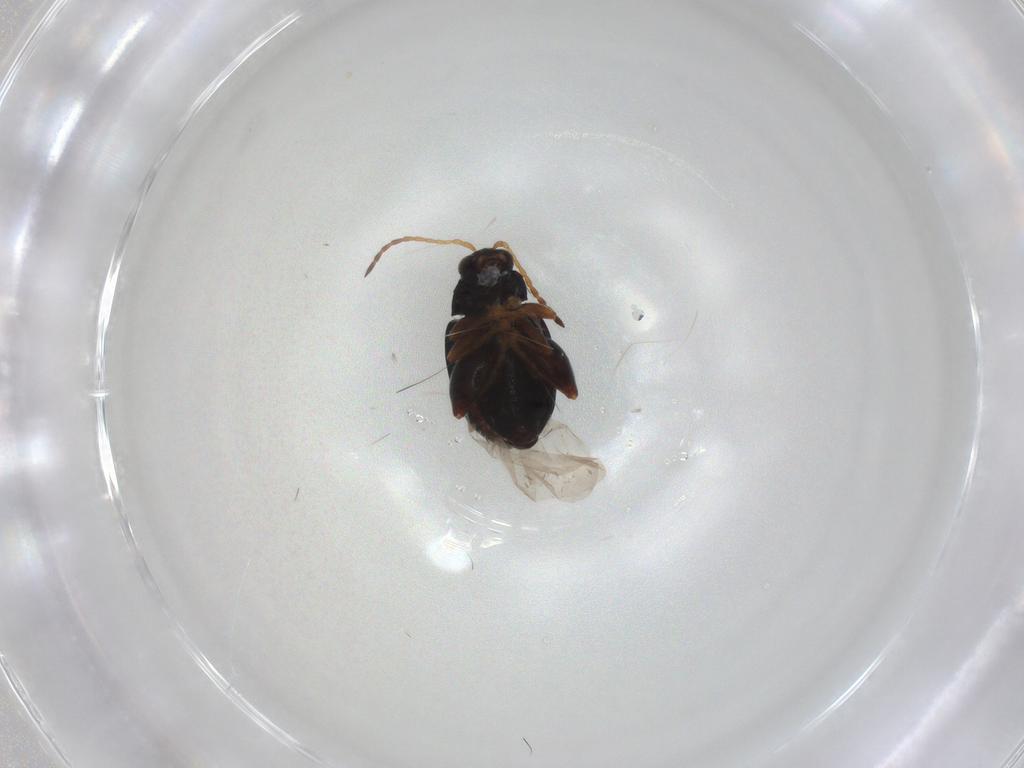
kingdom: Animalia
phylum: Arthropoda
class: Insecta
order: Coleoptera
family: Chrysomelidae
